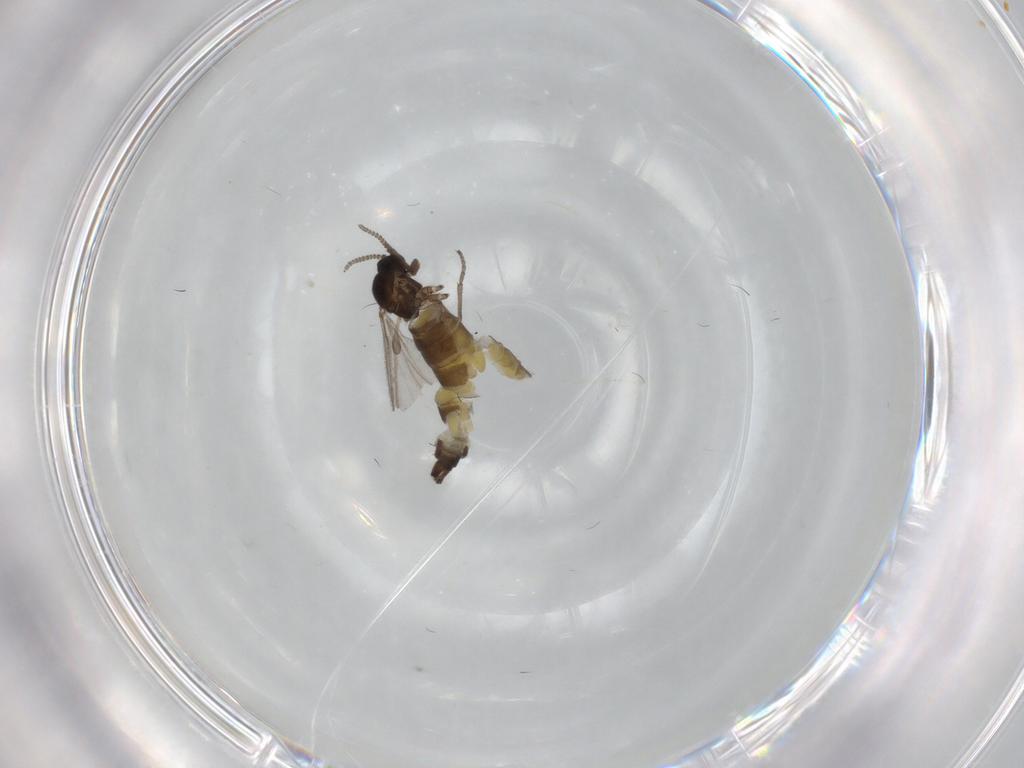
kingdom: Animalia
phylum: Arthropoda
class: Insecta
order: Diptera
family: Sciaridae
